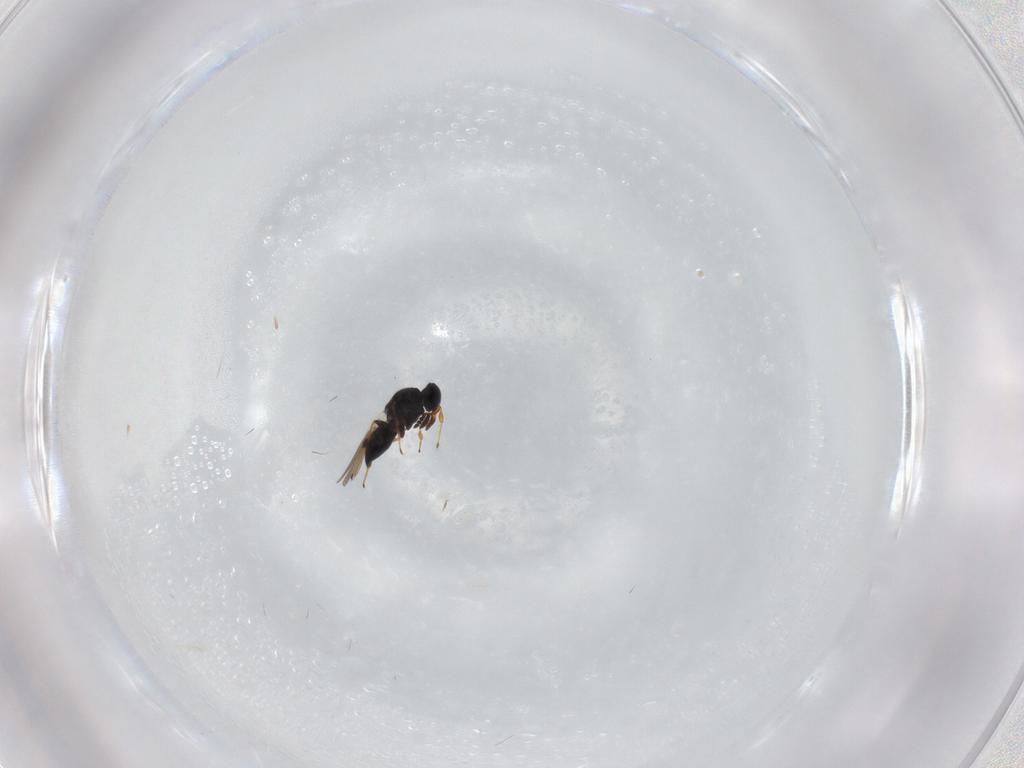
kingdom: Animalia
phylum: Arthropoda
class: Insecta
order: Hymenoptera
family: Platygastridae
